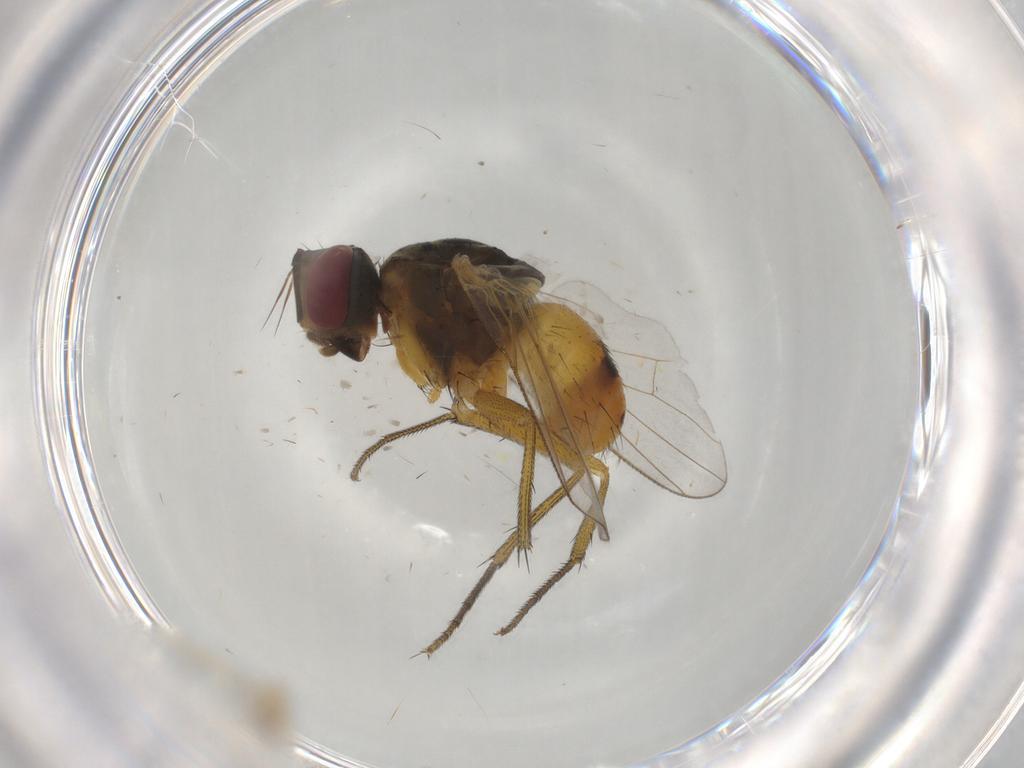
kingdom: Animalia
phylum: Arthropoda
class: Insecta
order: Diptera
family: Muscidae
